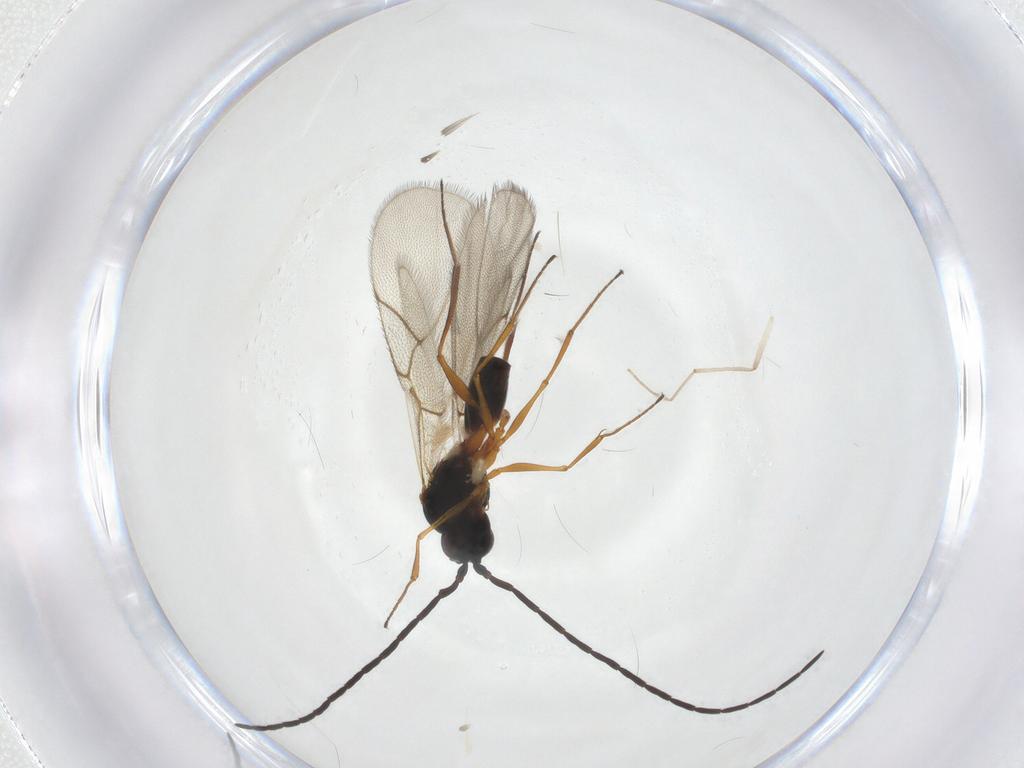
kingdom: Animalia
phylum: Arthropoda
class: Insecta
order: Hymenoptera
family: Figitidae
